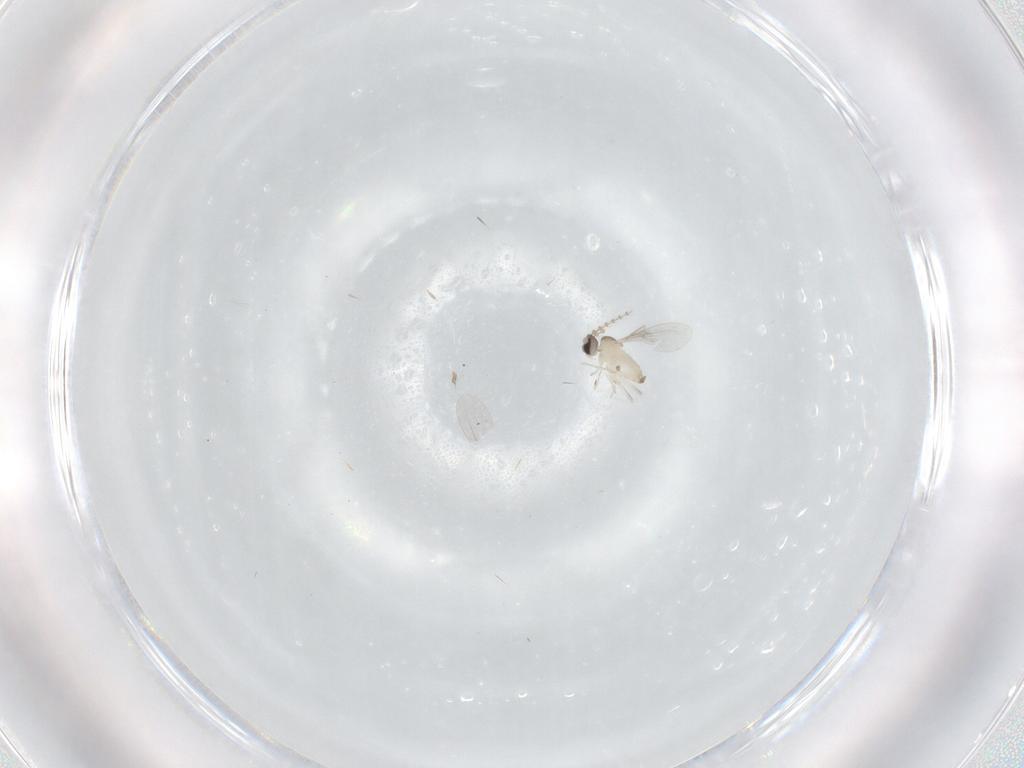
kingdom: Animalia
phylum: Arthropoda
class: Insecta
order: Diptera
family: Cecidomyiidae
